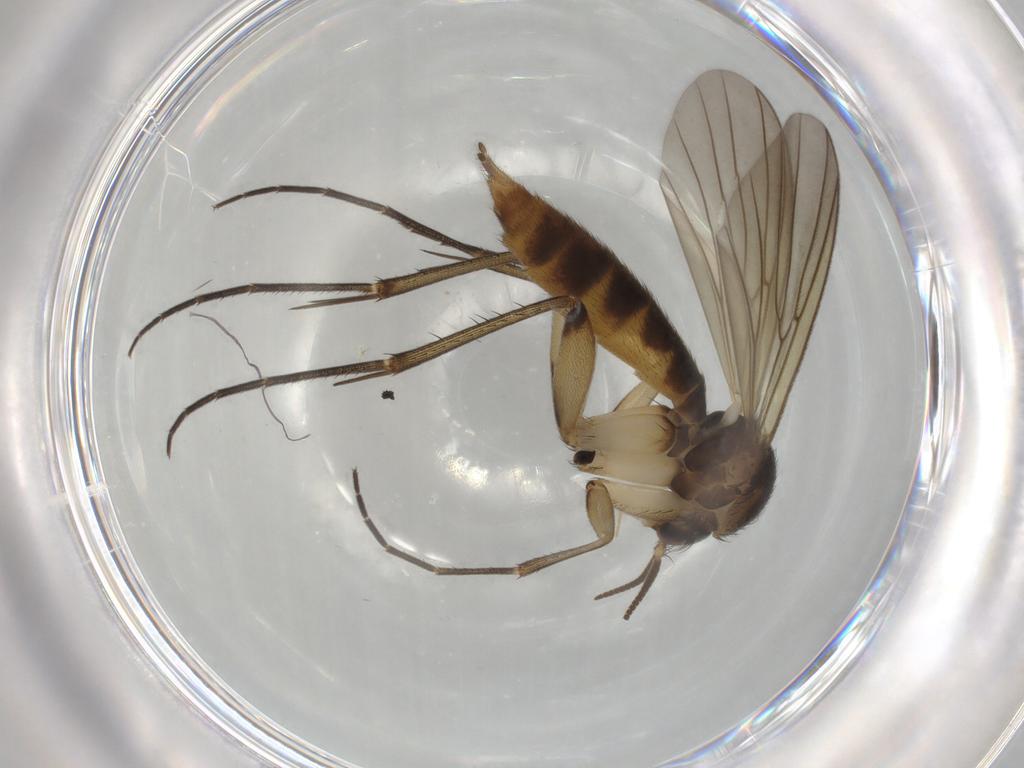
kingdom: Animalia
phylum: Arthropoda
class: Insecta
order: Diptera
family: Mycetophilidae
